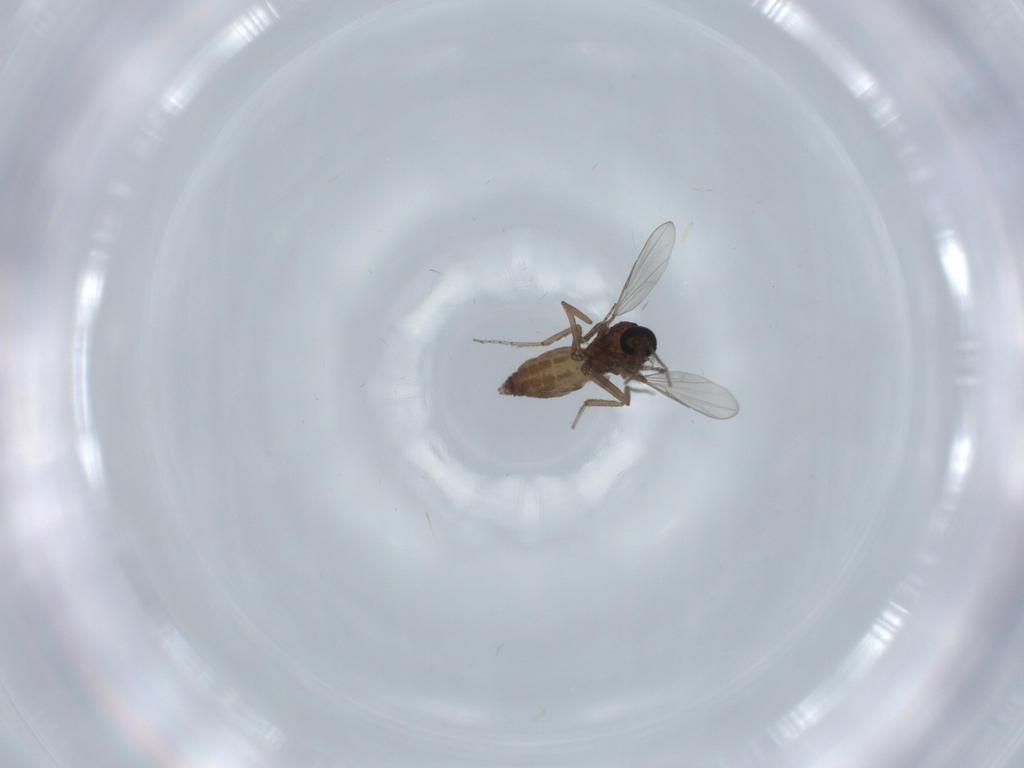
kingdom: Animalia
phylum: Arthropoda
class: Insecta
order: Diptera
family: Ceratopogonidae
